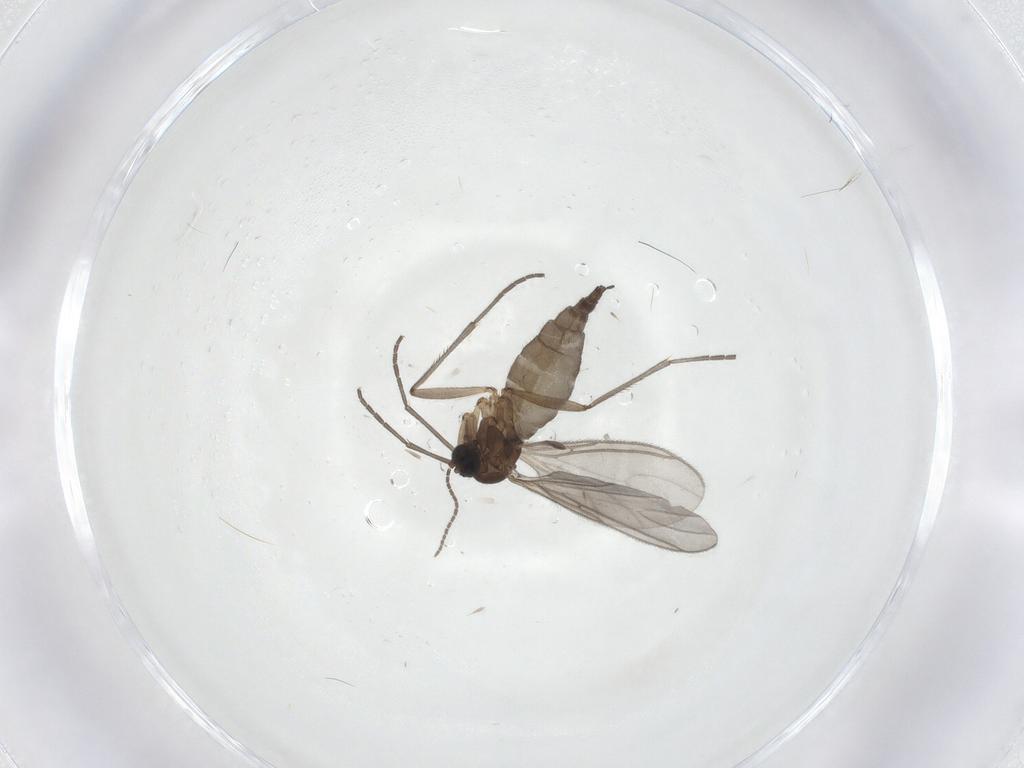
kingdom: Animalia
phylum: Arthropoda
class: Insecta
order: Diptera
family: Sciaridae
